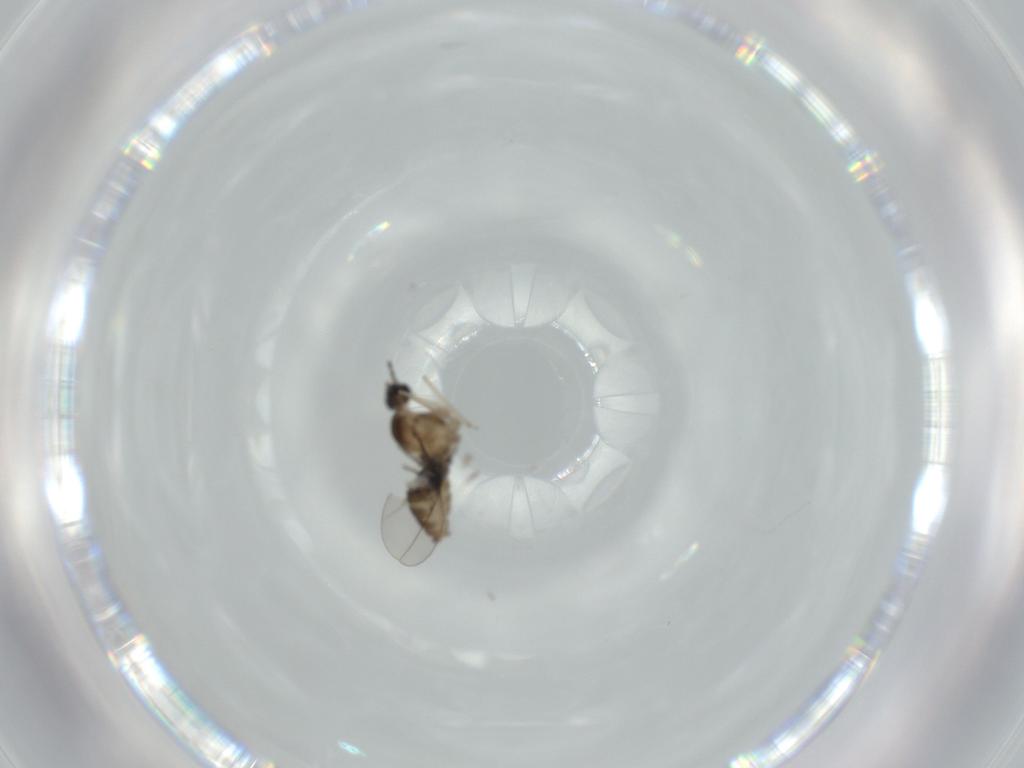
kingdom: Animalia
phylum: Arthropoda
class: Insecta
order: Diptera
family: Cecidomyiidae
